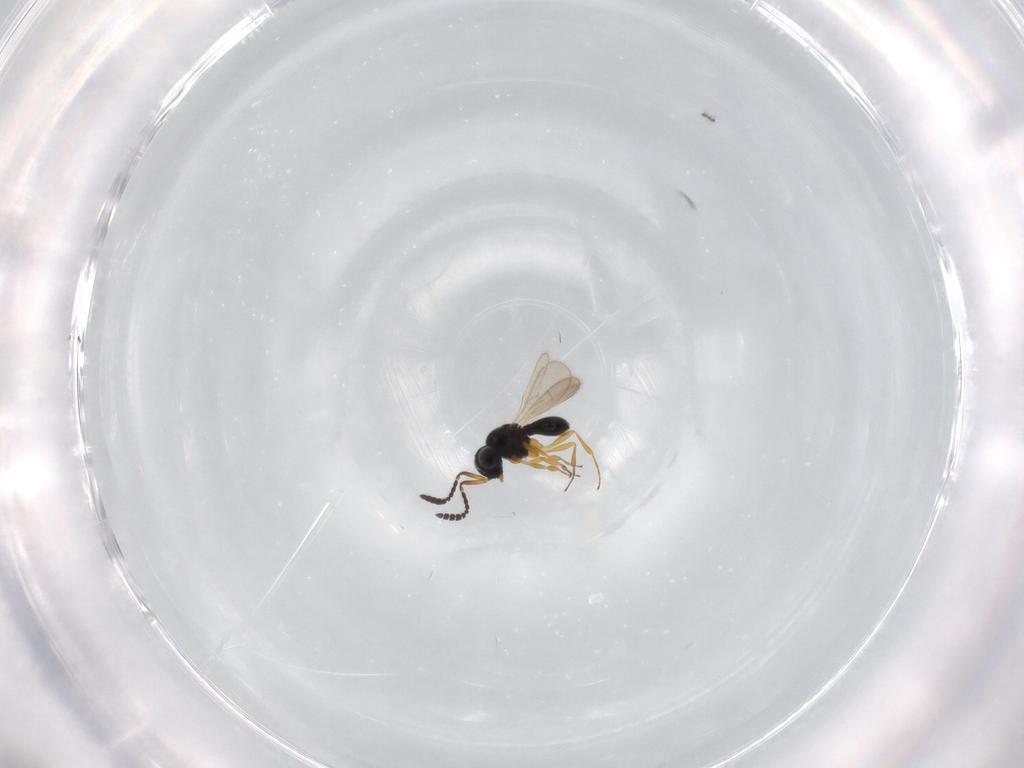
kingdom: Animalia
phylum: Arthropoda
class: Insecta
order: Hymenoptera
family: Scelionidae
